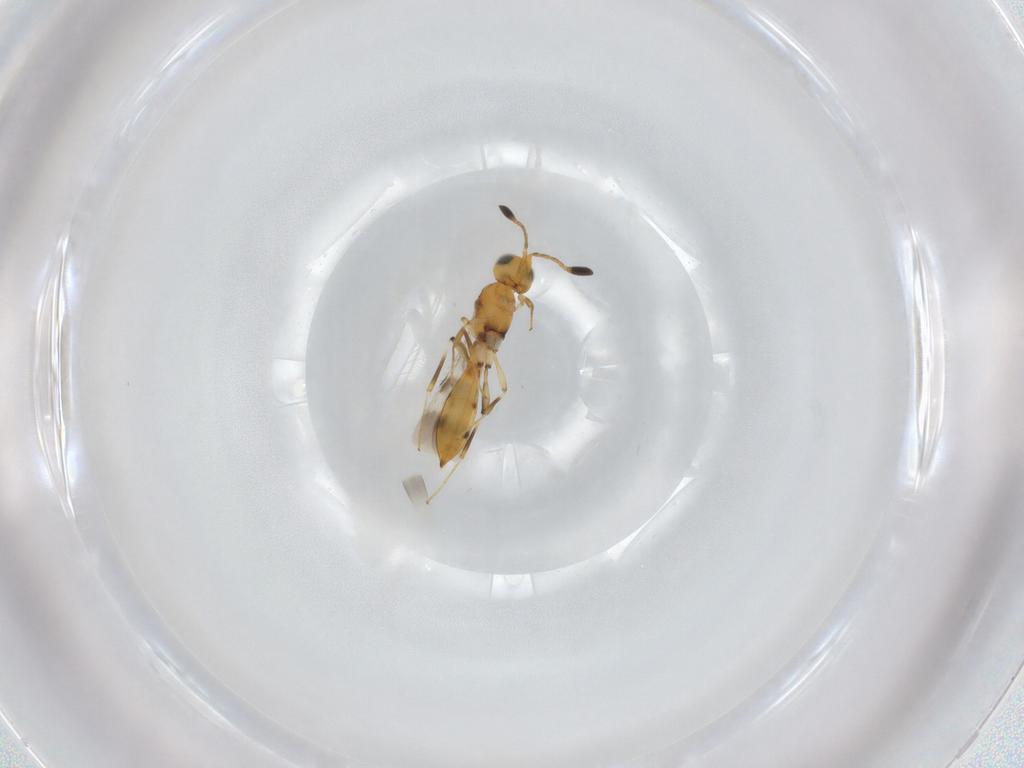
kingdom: Animalia
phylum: Arthropoda
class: Insecta
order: Hymenoptera
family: Scelionidae
